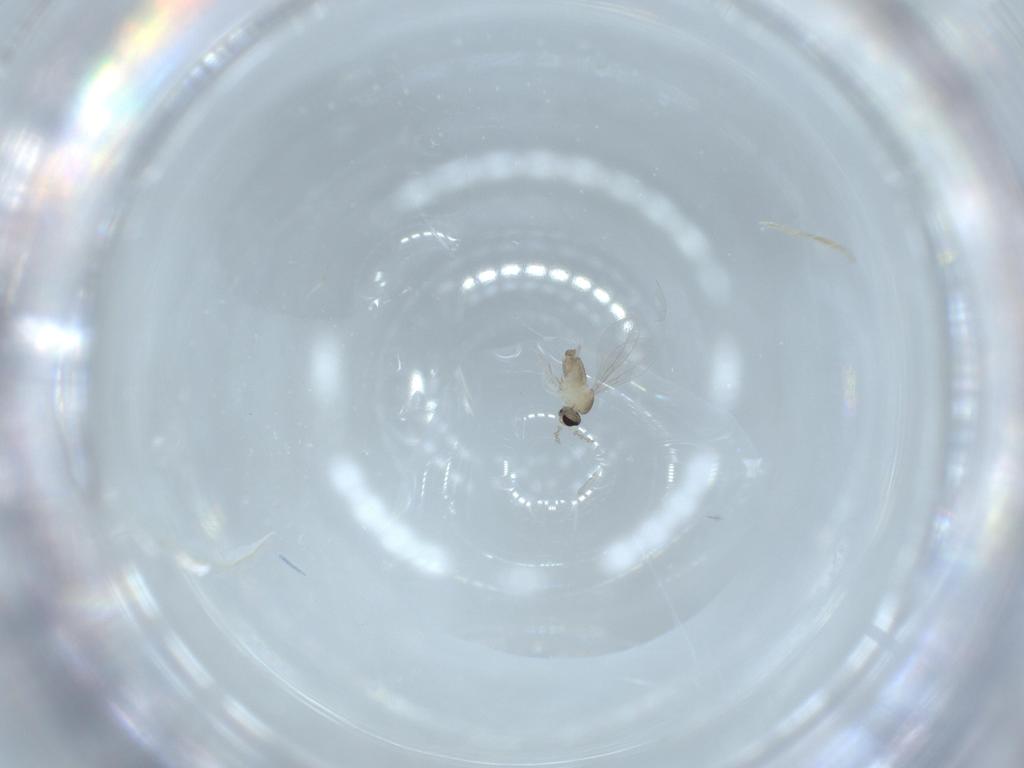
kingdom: Animalia
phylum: Arthropoda
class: Insecta
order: Diptera
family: Cecidomyiidae
